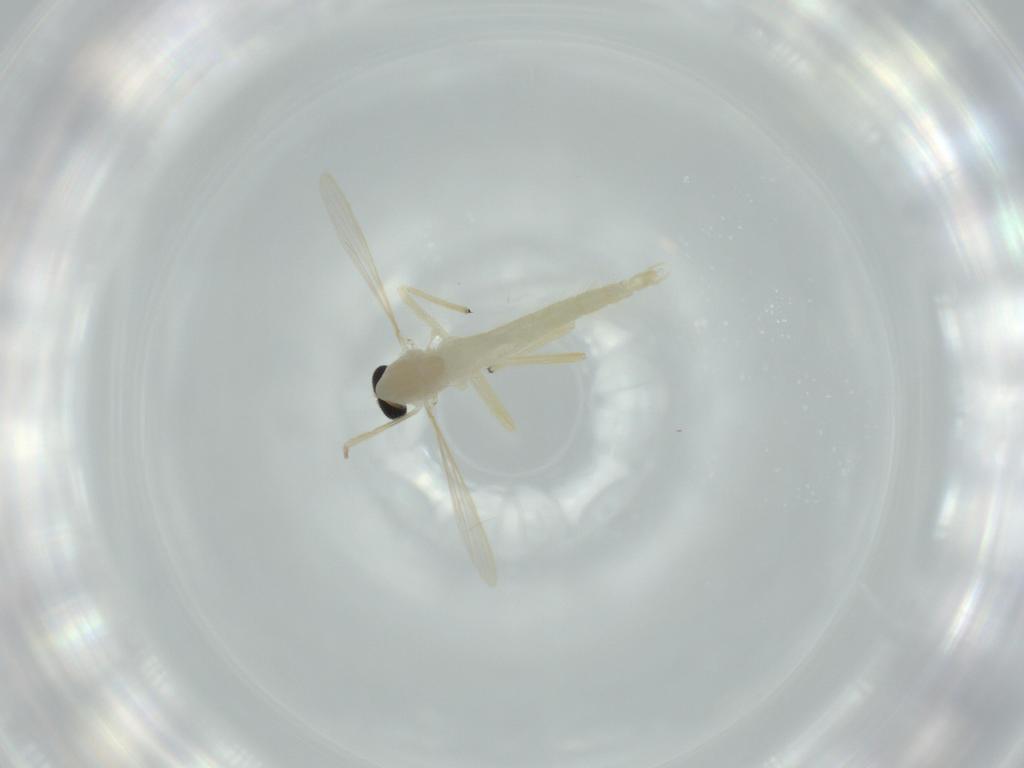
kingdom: Animalia
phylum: Arthropoda
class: Insecta
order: Diptera
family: Chironomidae
